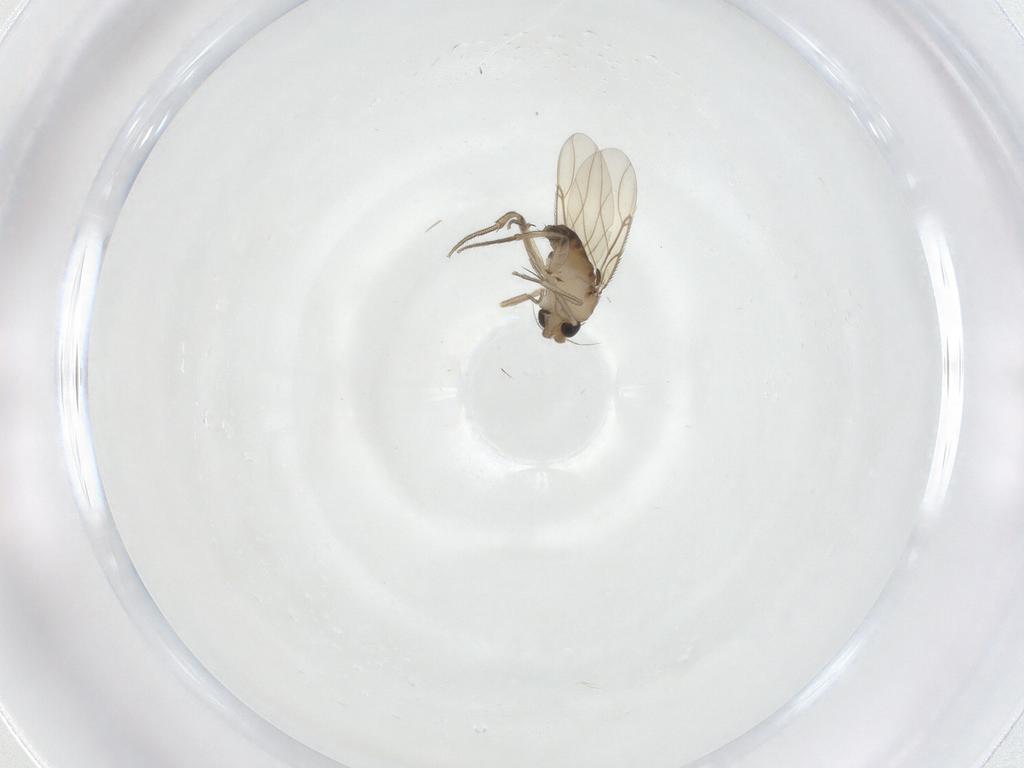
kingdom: Animalia
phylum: Arthropoda
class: Insecta
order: Diptera
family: Phoridae
